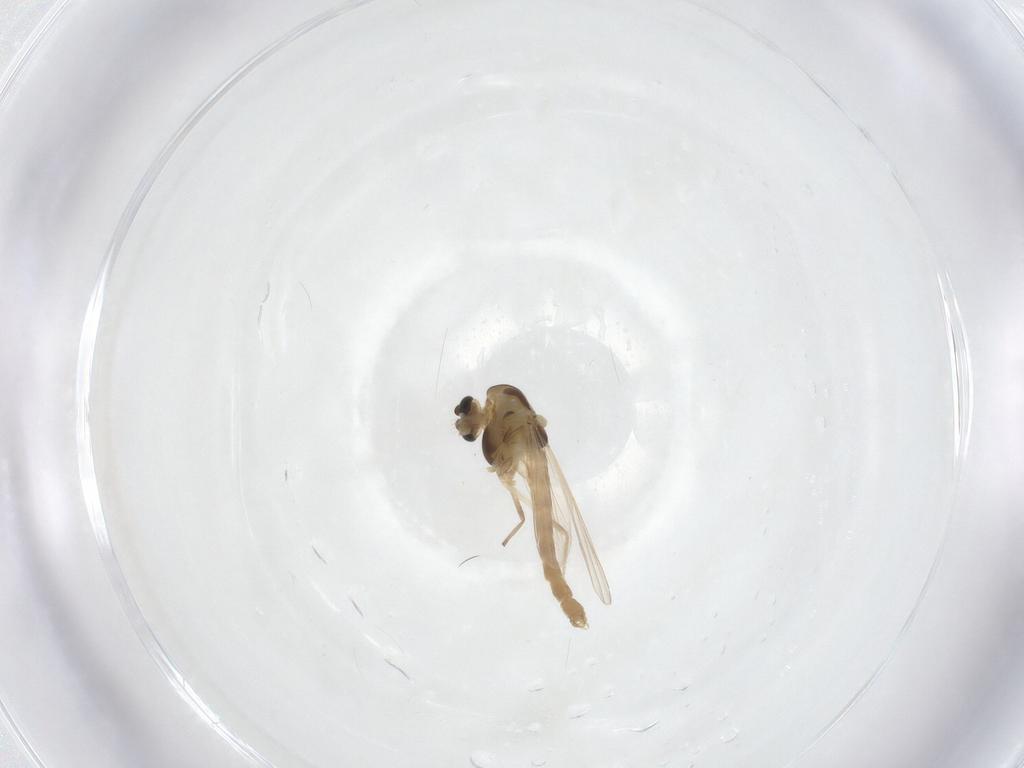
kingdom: Animalia
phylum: Arthropoda
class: Insecta
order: Diptera
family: Chironomidae
